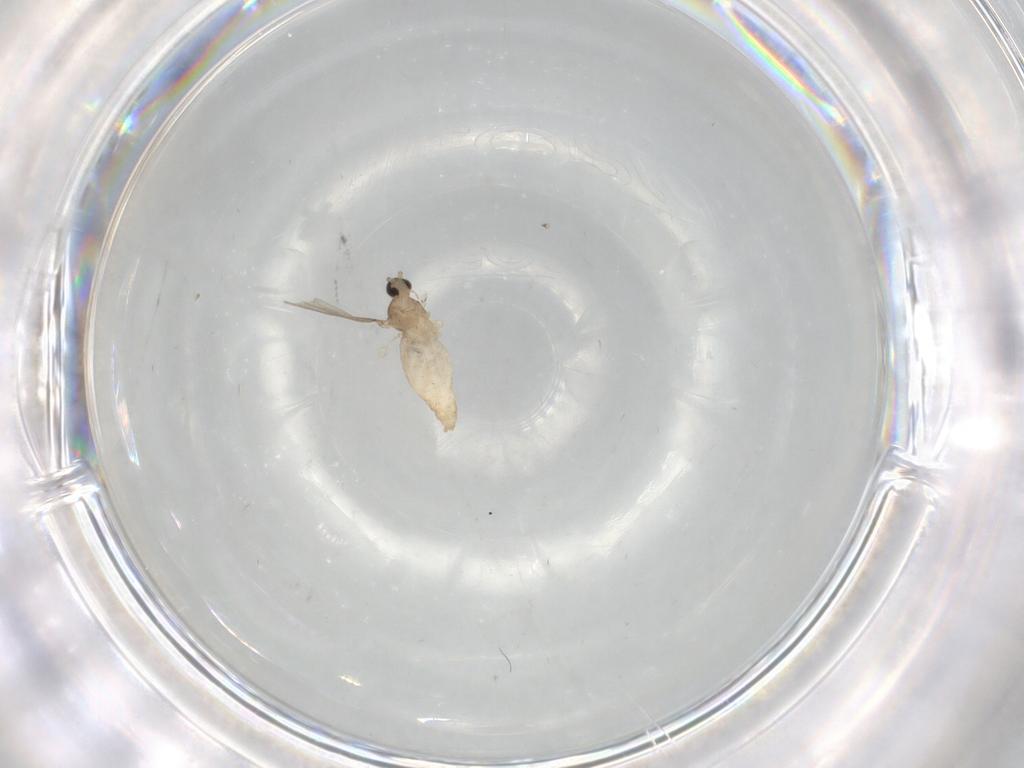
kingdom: Animalia
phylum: Arthropoda
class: Insecta
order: Diptera
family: Cecidomyiidae
